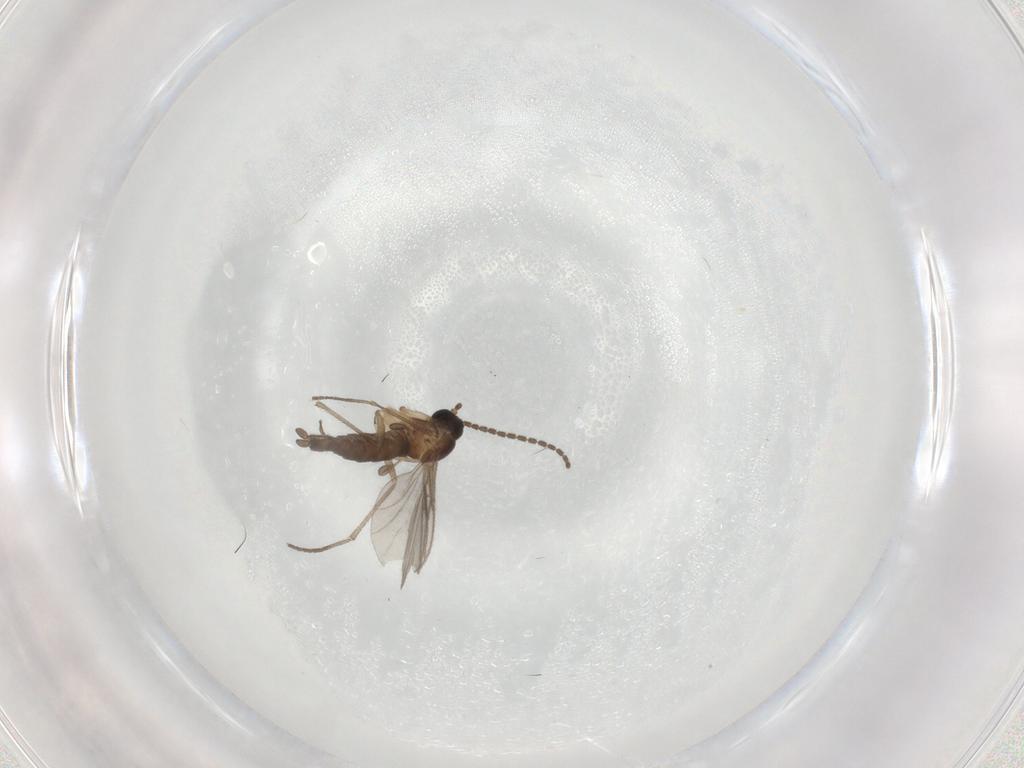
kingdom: Animalia
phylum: Arthropoda
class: Insecta
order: Diptera
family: Sciaridae
